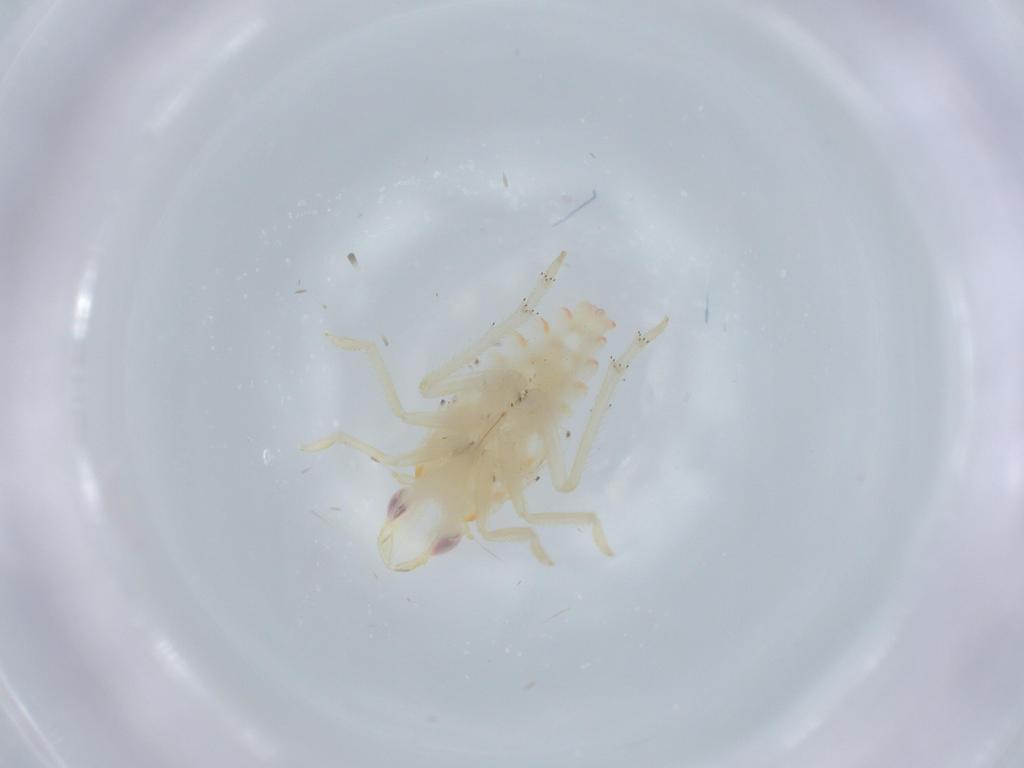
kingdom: Animalia
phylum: Arthropoda
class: Insecta
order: Hemiptera
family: Tropiduchidae
